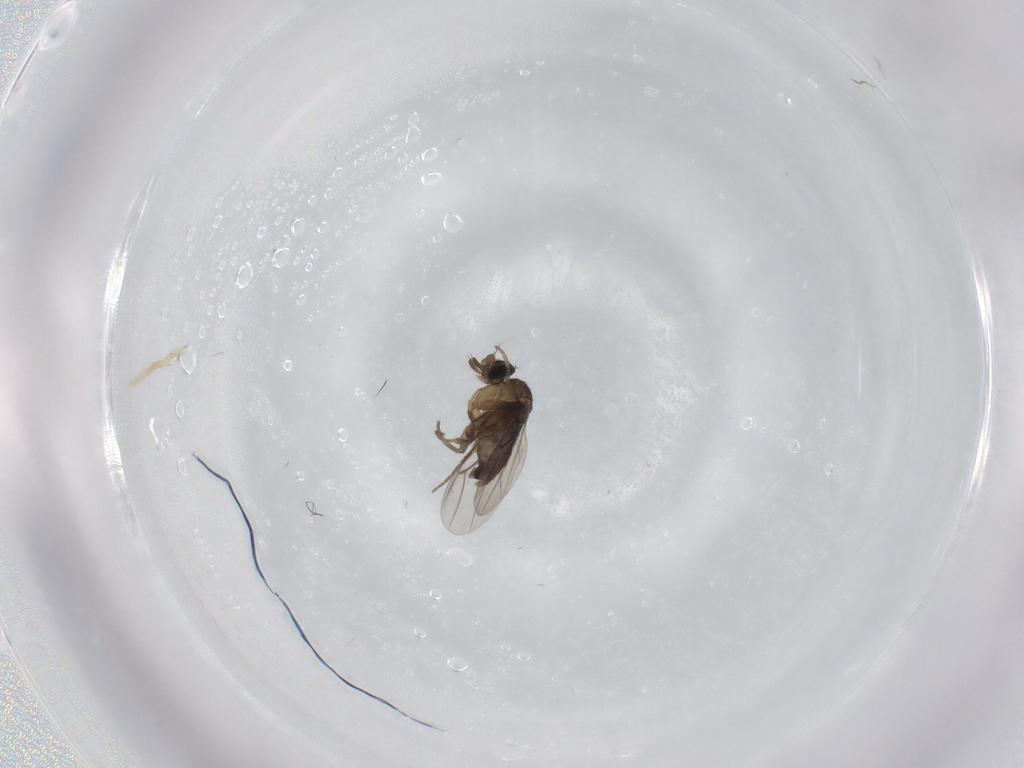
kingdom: Animalia
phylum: Arthropoda
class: Insecta
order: Diptera
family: Phoridae
